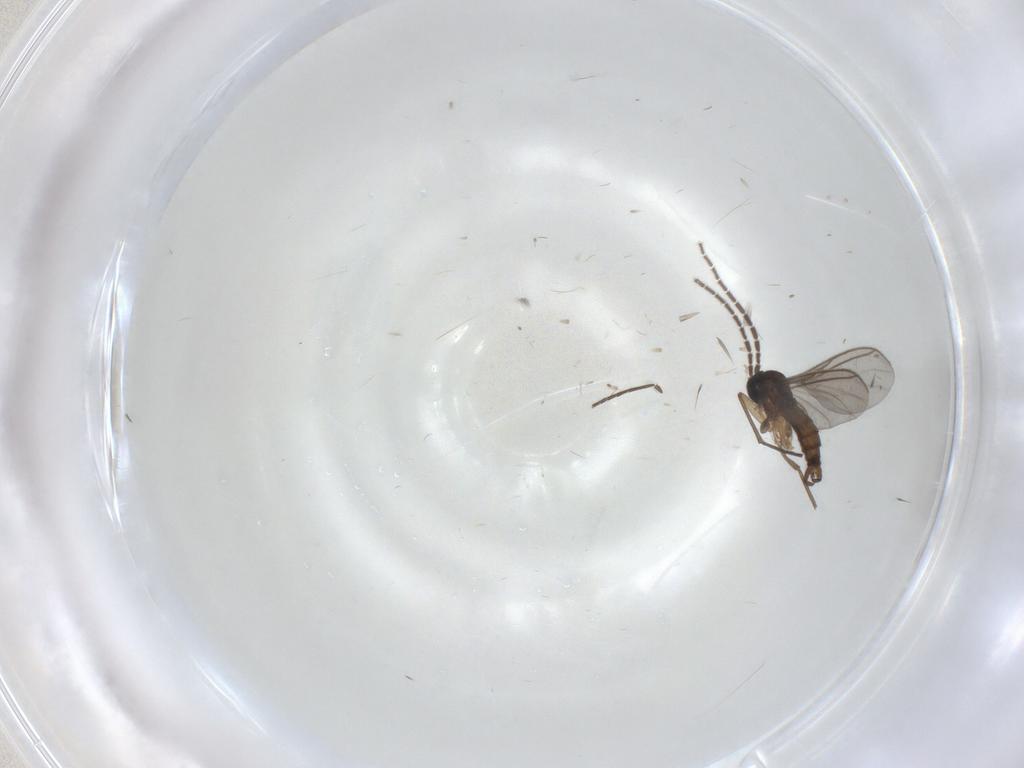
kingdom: Animalia
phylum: Arthropoda
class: Insecta
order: Diptera
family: Sciaridae
